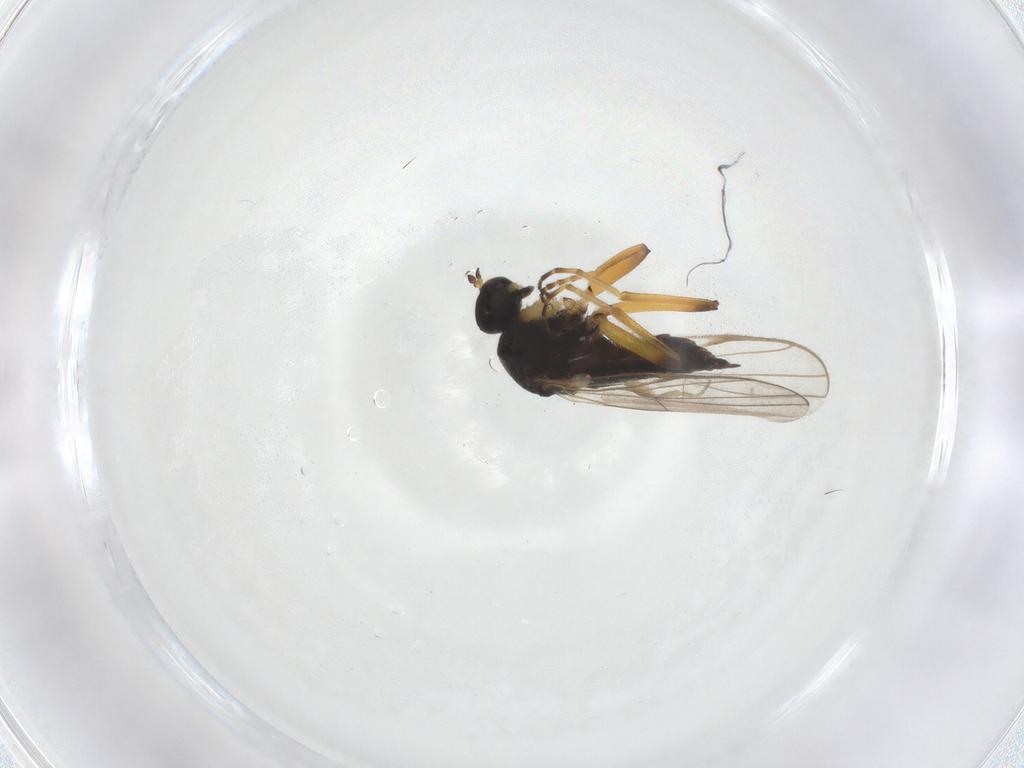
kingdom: Animalia
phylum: Arthropoda
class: Insecta
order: Diptera
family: Hybotidae
